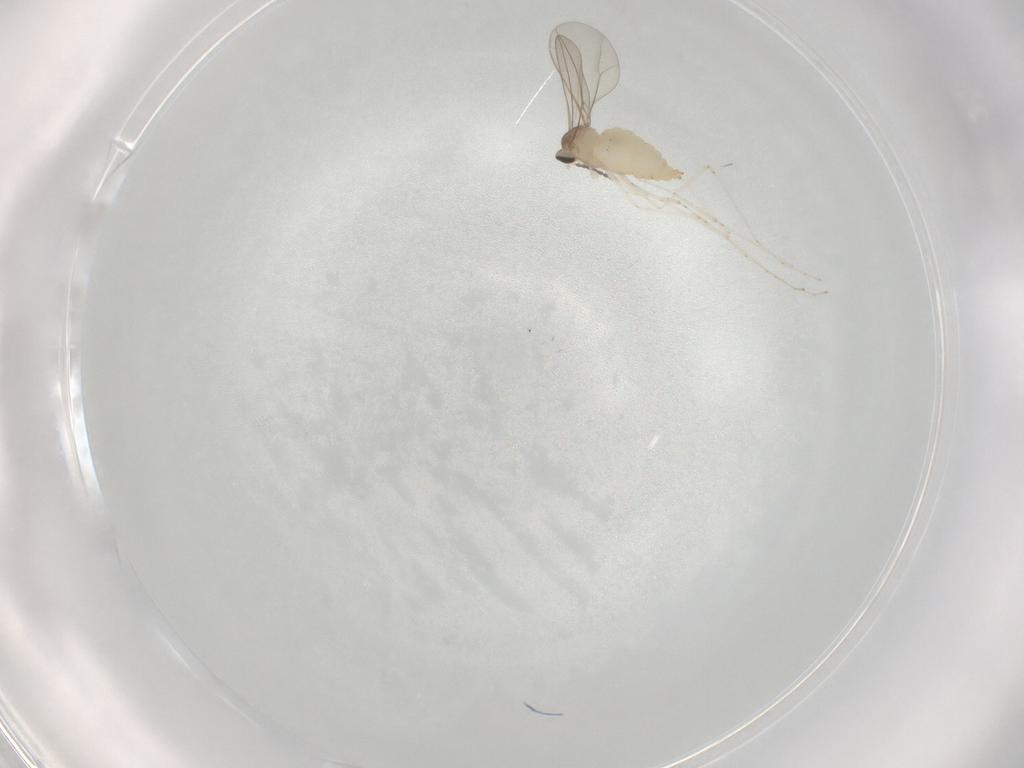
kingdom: Animalia
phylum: Arthropoda
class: Insecta
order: Diptera
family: Cecidomyiidae
